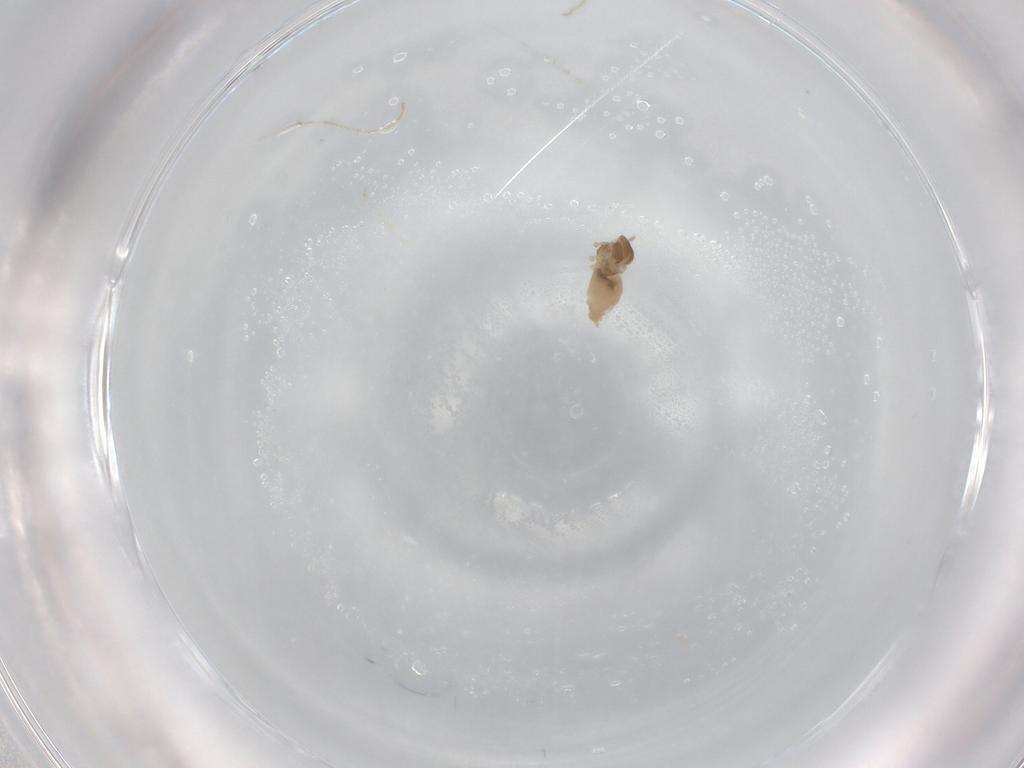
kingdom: Animalia
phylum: Arthropoda
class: Insecta
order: Diptera
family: Cecidomyiidae
